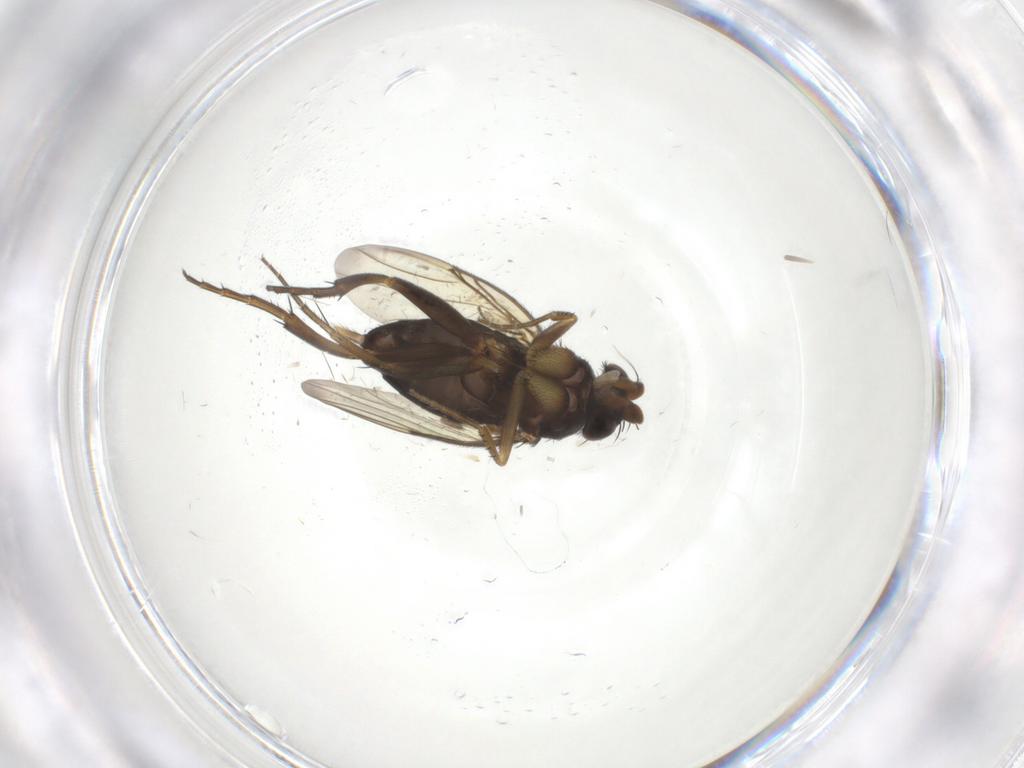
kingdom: Animalia
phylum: Arthropoda
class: Insecta
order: Diptera
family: Phoridae
